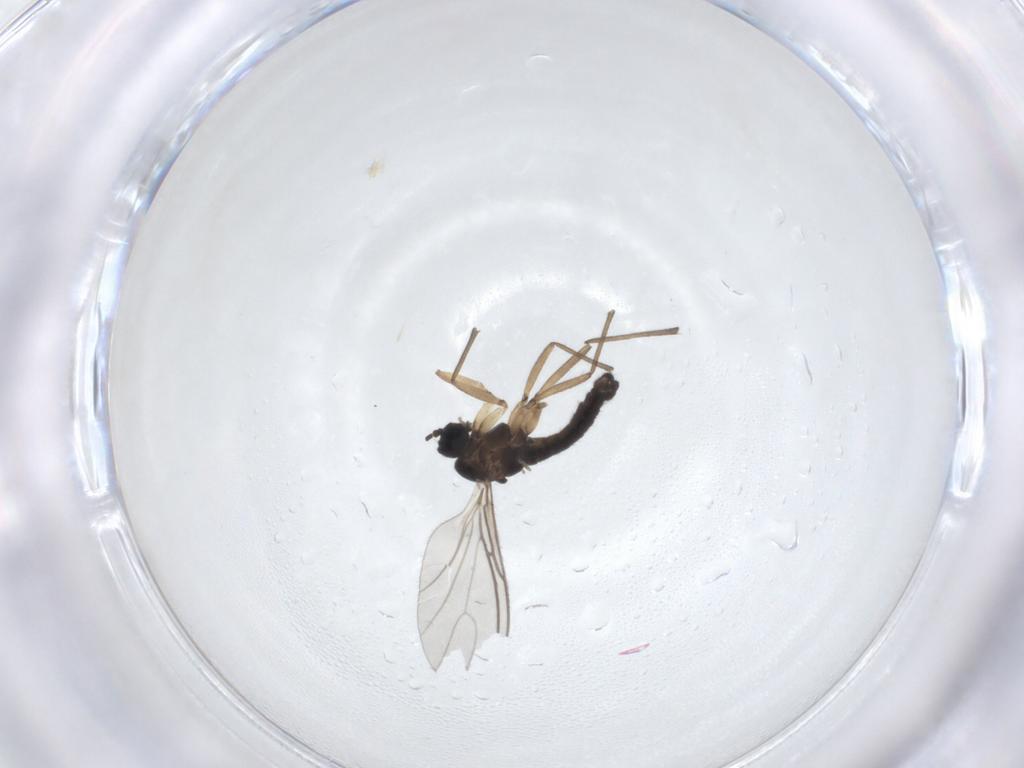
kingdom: Animalia
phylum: Arthropoda
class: Insecta
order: Diptera
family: Sciaridae
